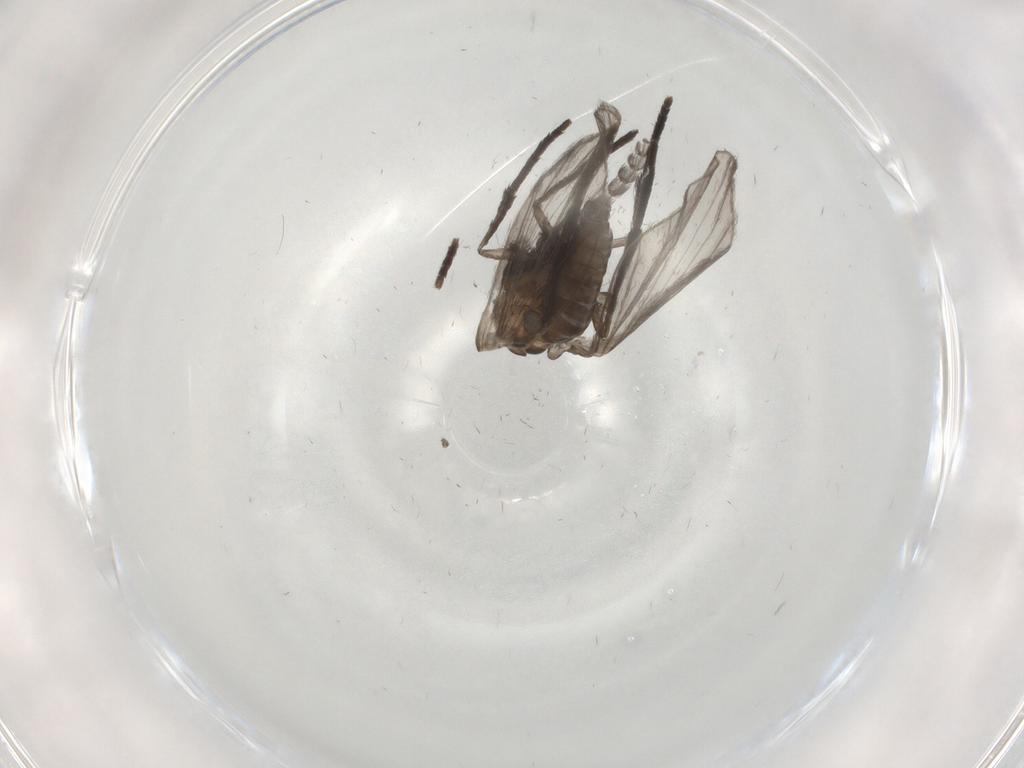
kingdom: Animalia
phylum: Arthropoda
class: Insecta
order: Diptera
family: Psychodidae
